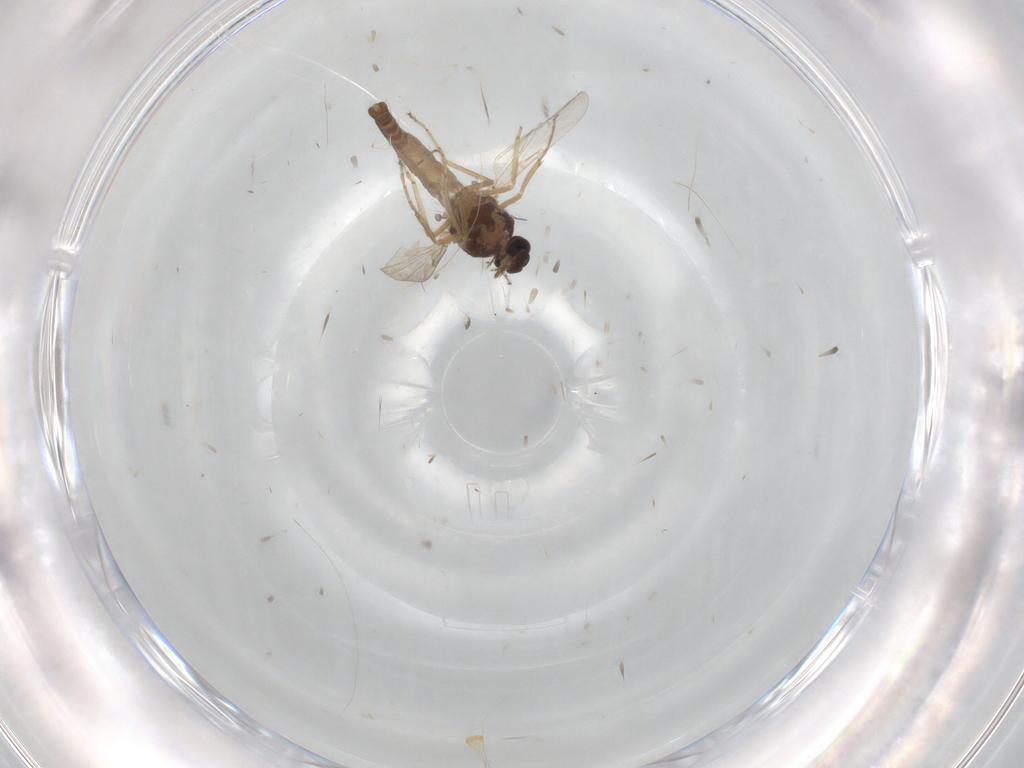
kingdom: Animalia
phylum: Arthropoda
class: Insecta
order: Diptera
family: Ceratopogonidae
